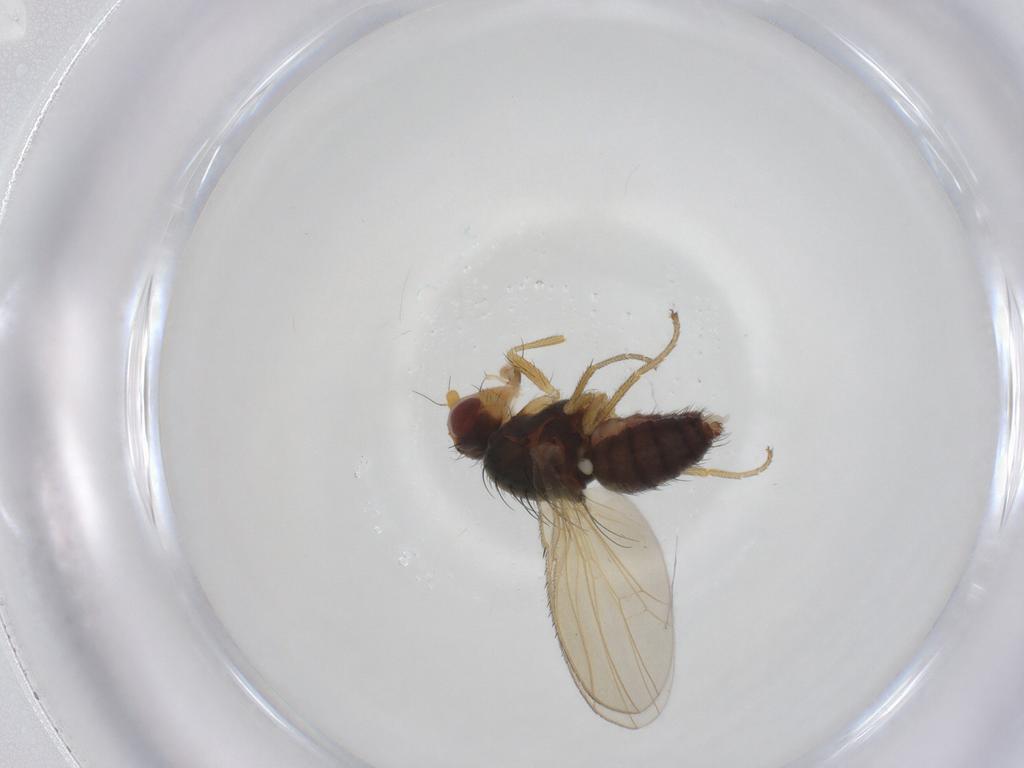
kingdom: Animalia
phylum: Arthropoda
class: Insecta
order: Diptera
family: Heleomyzidae
